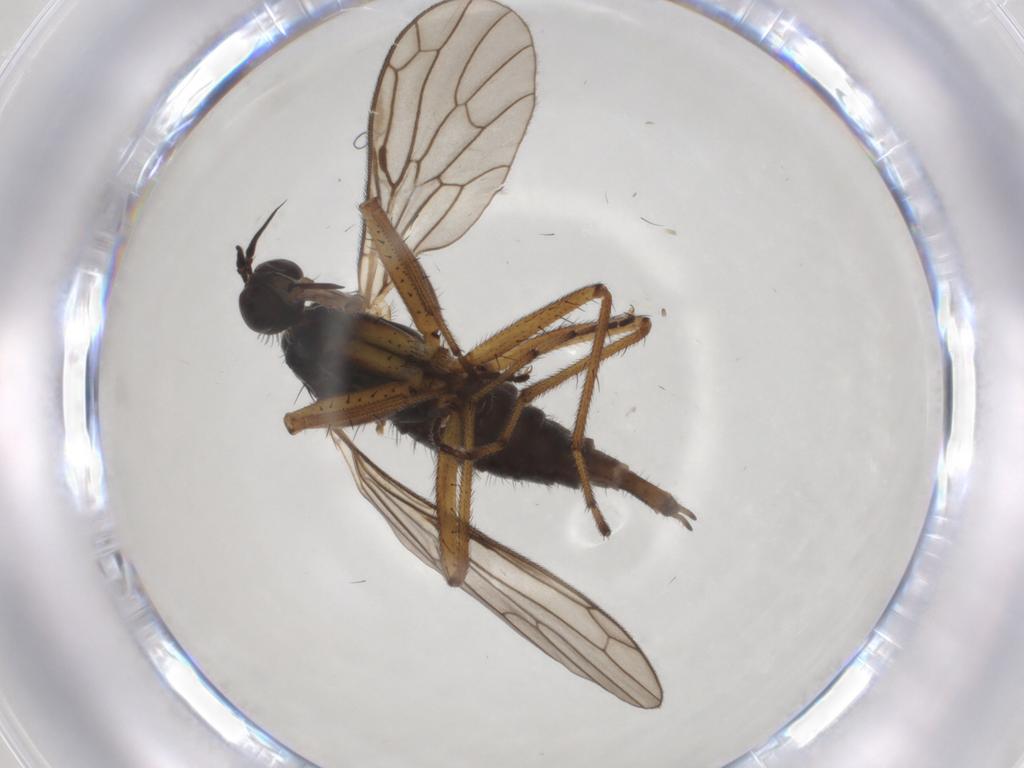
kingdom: Animalia
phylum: Arthropoda
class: Insecta
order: Diptera
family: Empididae
